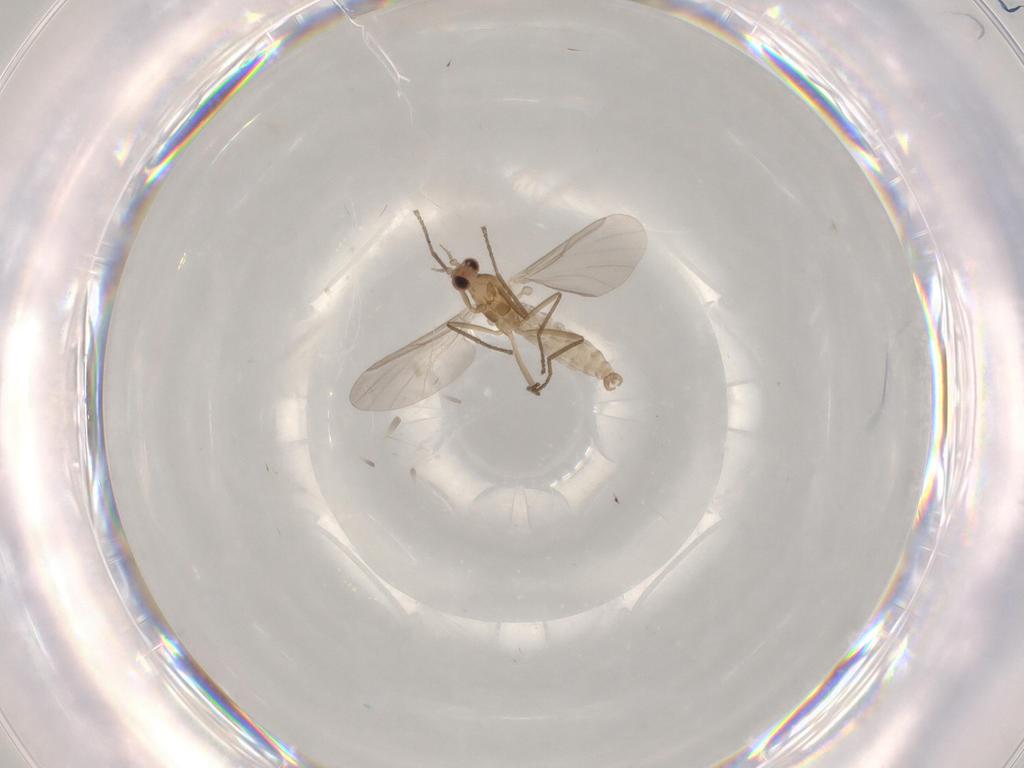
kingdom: Animalia
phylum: Arthropoda
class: Insecta
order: Diptera
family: Cecidomyiidae
